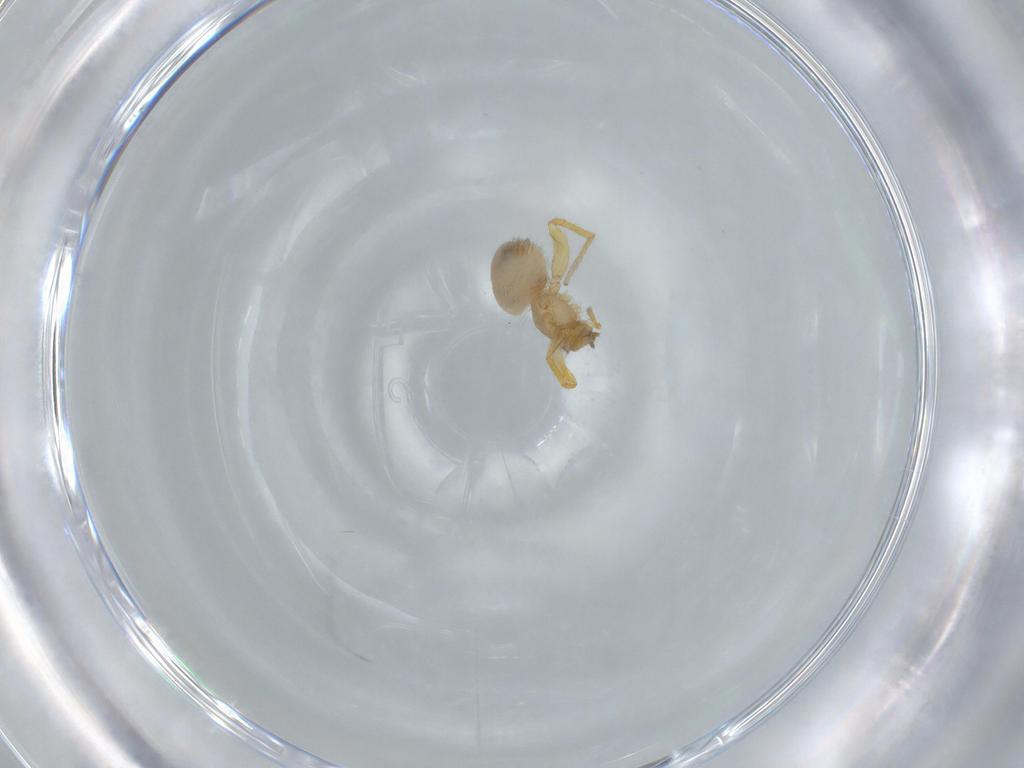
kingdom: Animalia
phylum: Arthropoda
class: Arachnida
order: Araneae
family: Oonopidae
